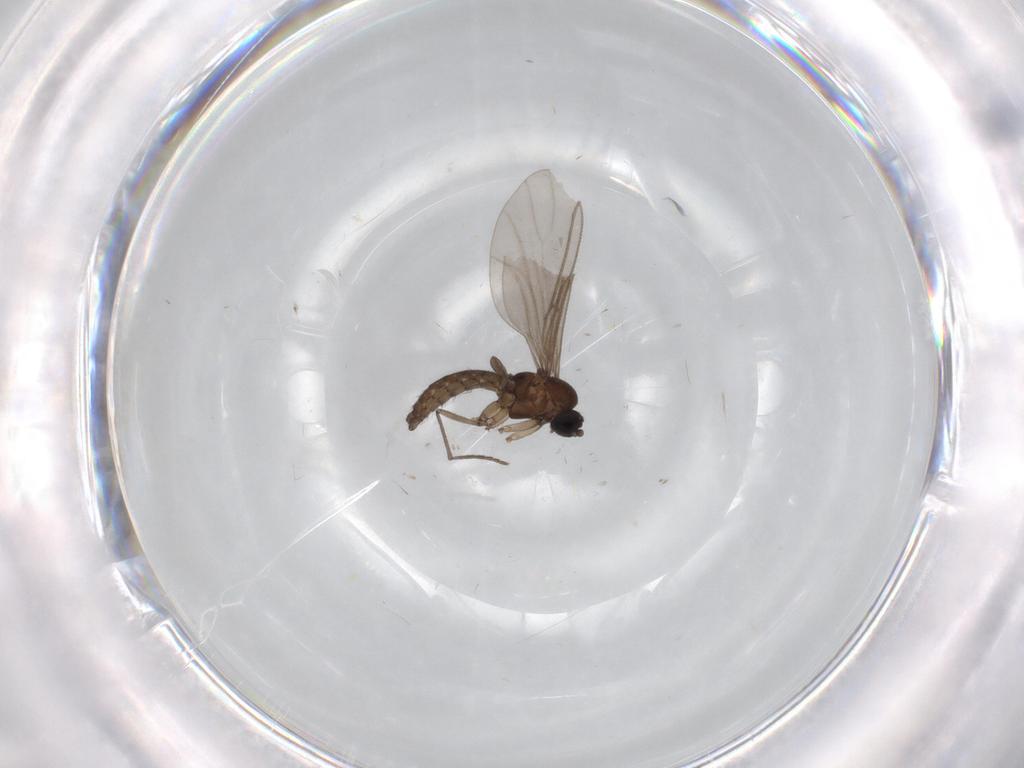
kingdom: Animalia
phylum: Arthropoda
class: Insecta
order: Diptera
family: Sciaridae
